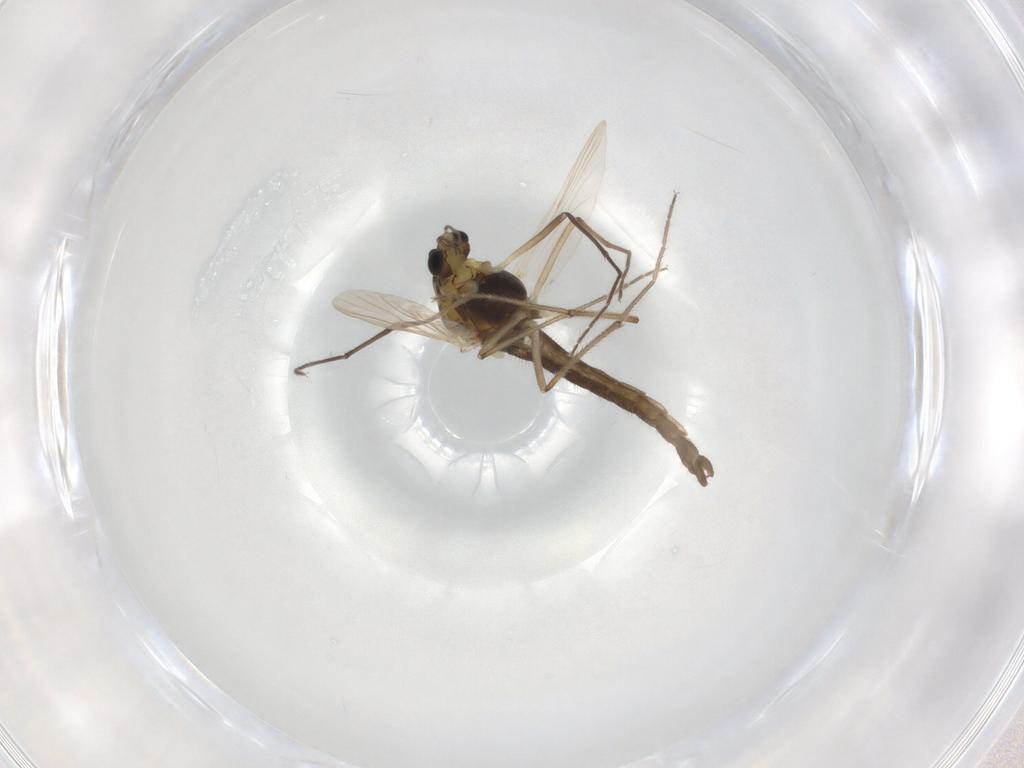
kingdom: Animalia
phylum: Arthropoda
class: Insecta
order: Diptera
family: Chironomidae
